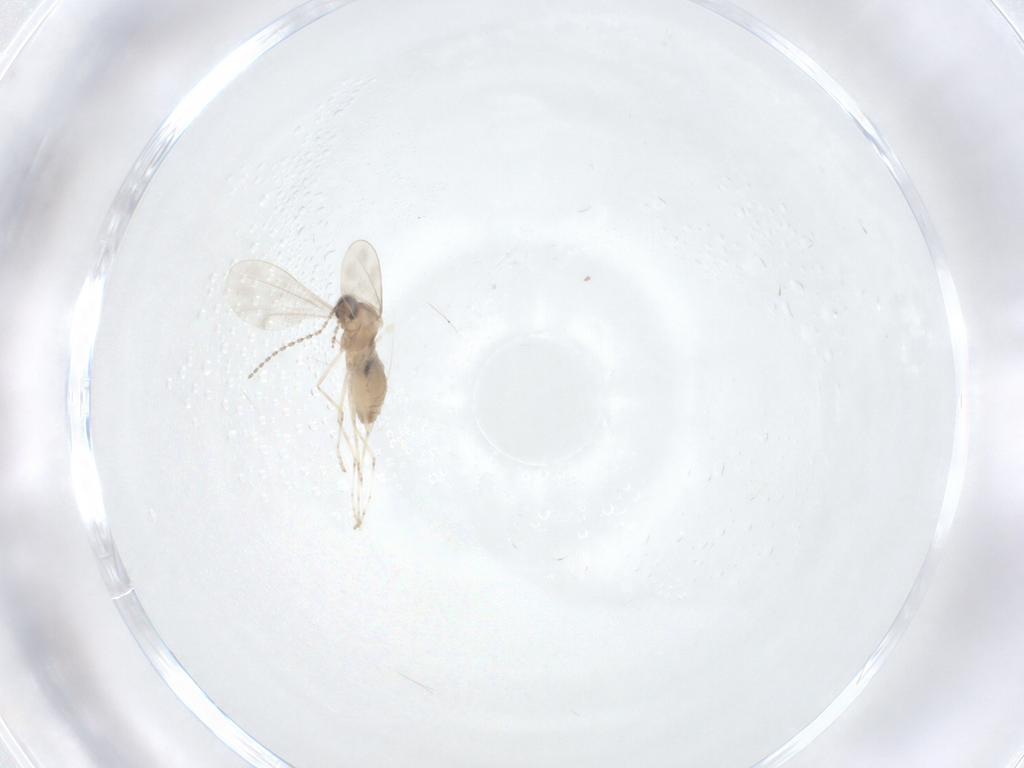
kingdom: Animalia
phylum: Arthropoda
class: Insecta
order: Diptera
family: Cecidomyiidae
